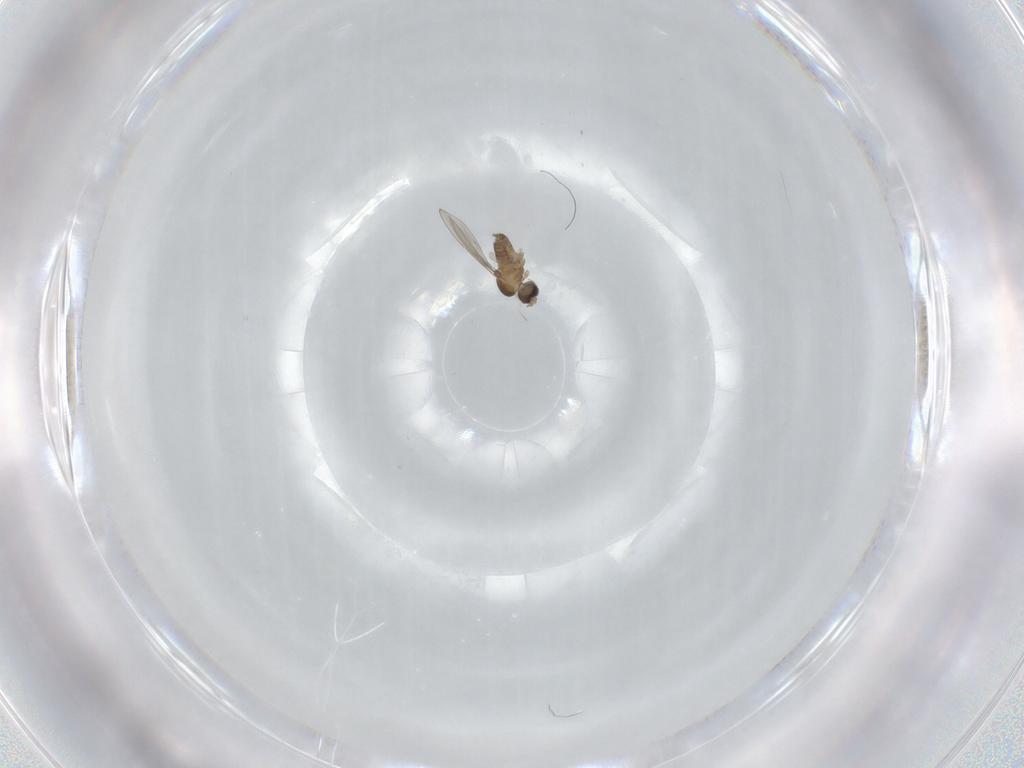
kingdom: Animalia
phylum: Arthropoda
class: Insecta
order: Diptera
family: Cecidomyiidae
